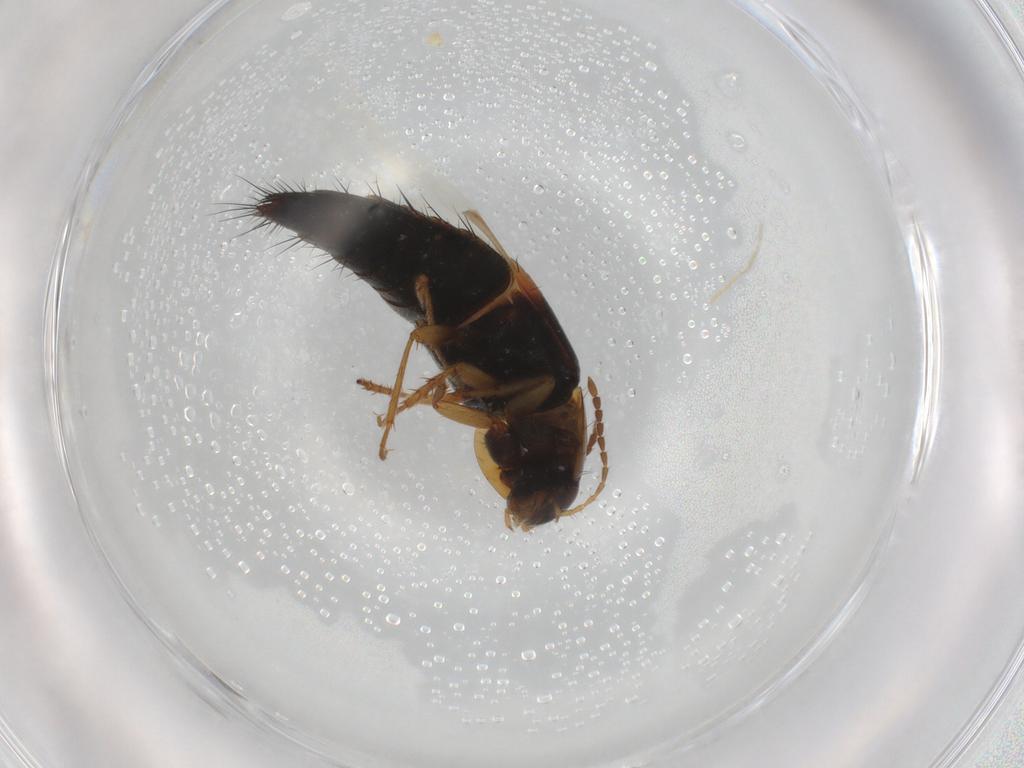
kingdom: Animalia
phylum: Arthropoda
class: Insecta
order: Coleoptera
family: Staphylinidae
